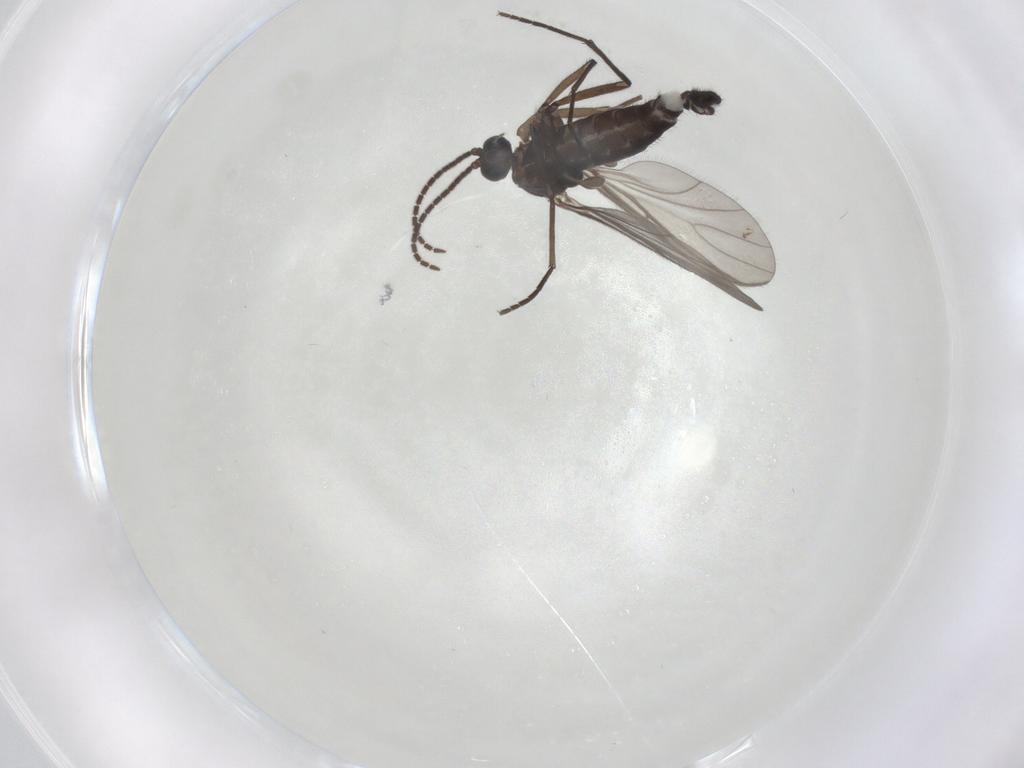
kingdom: Animalia
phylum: Arthropoda
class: Insecta
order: Diptera
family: Sciaridae
